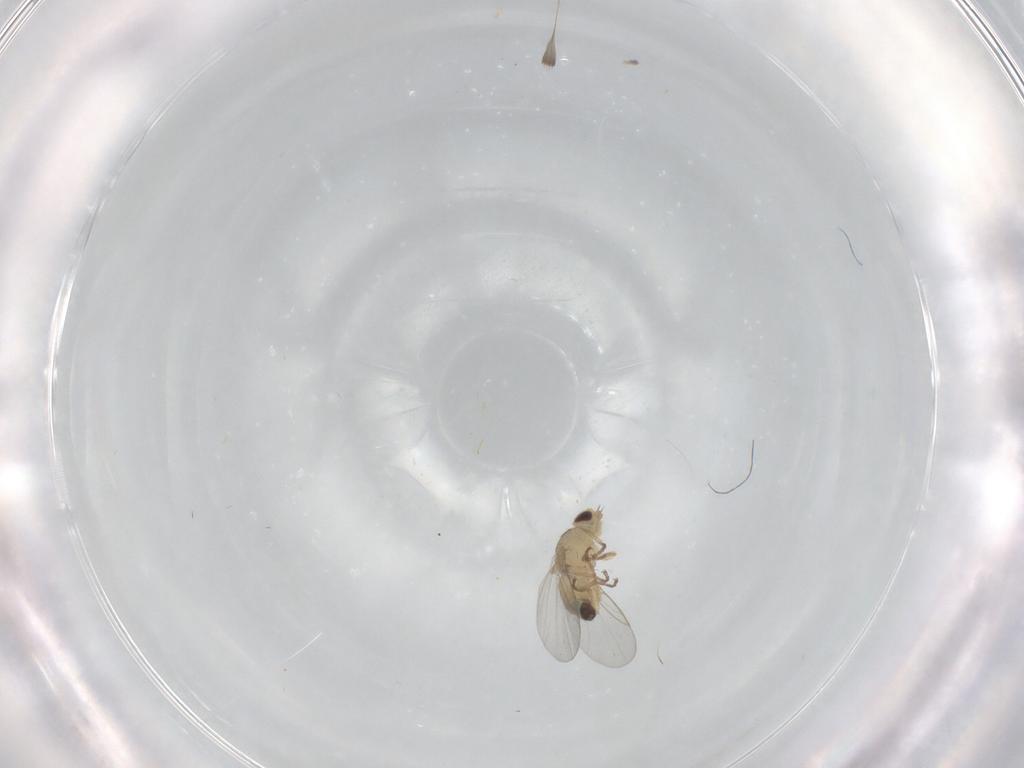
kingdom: Animalia
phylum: Arthropoda
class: Insecta
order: Diptera
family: Agromyzidae
